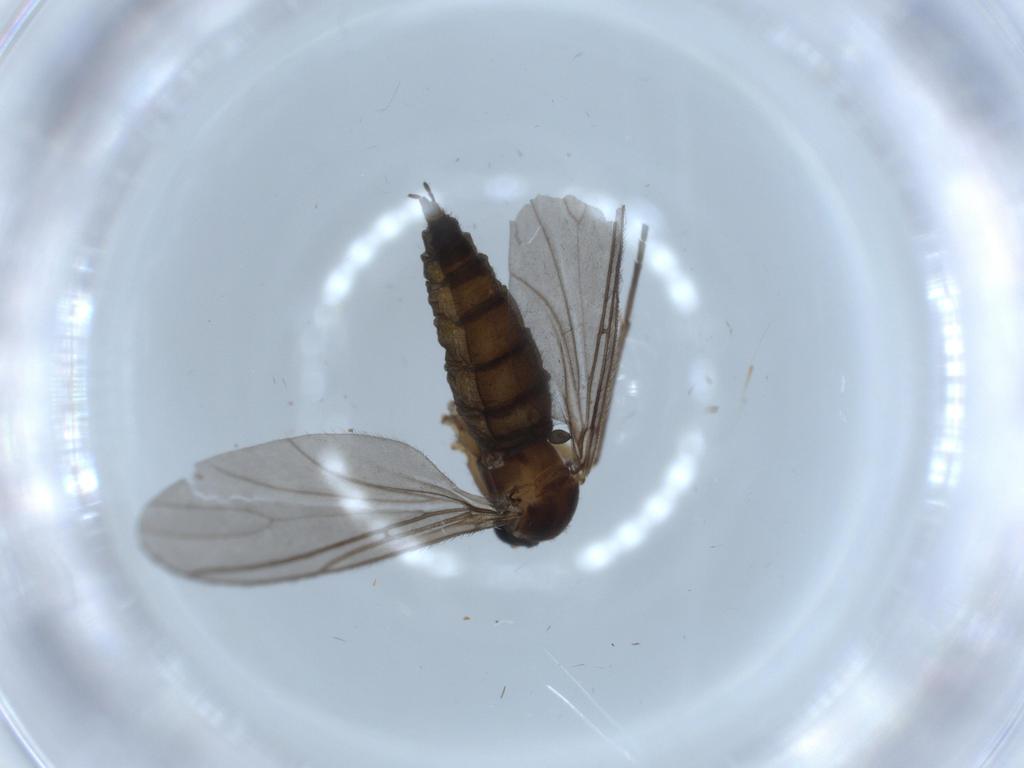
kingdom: Animalia
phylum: Arthropoda
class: Insecta
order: Diptera
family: Sciaridae
